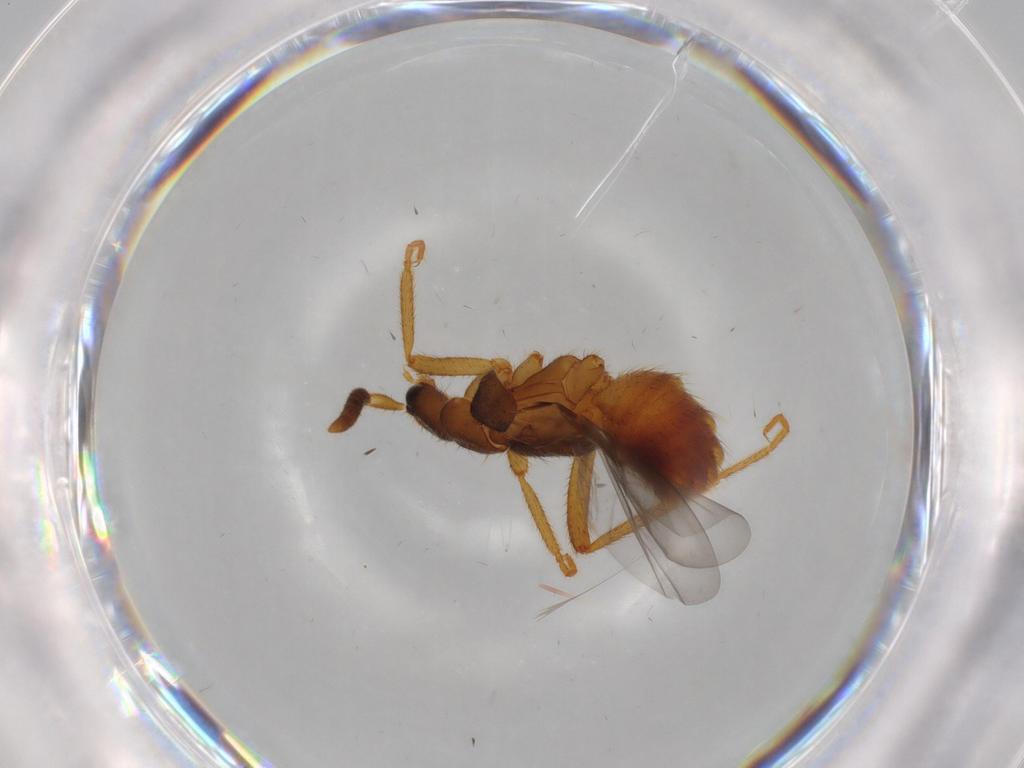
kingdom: Animalia
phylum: Arthropoda
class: Insecta
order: Coleoptera
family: Staphylinidae
